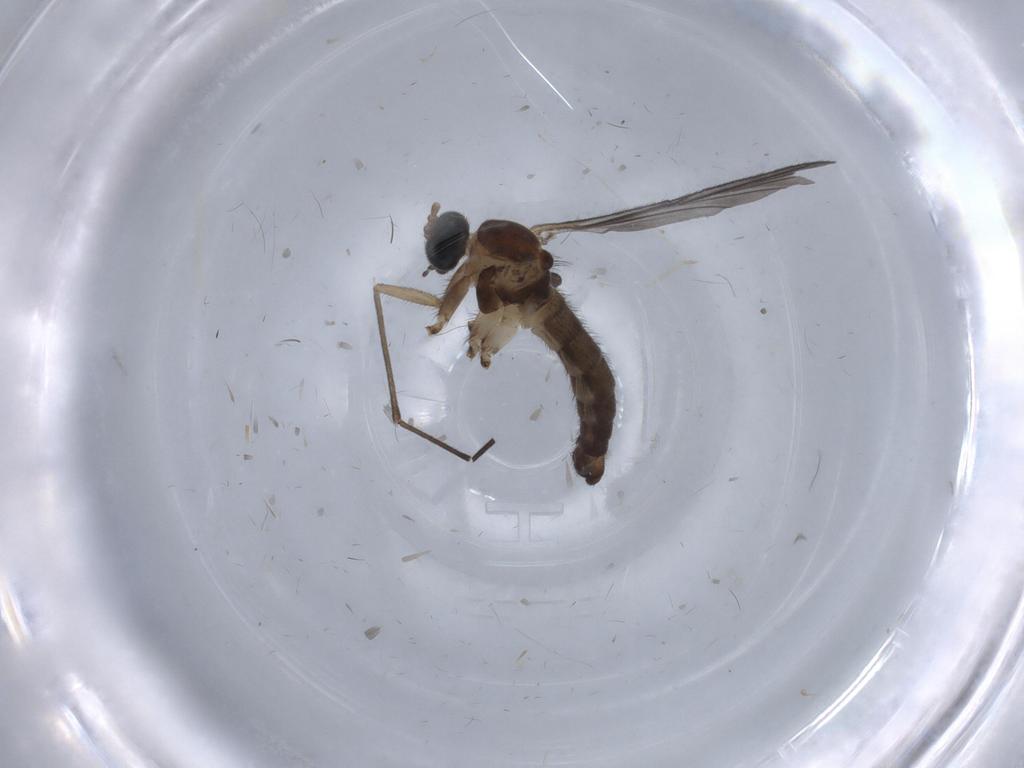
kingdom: Animalia
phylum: Arthropoda
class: Insecta
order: Diptera
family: Sciaridae
